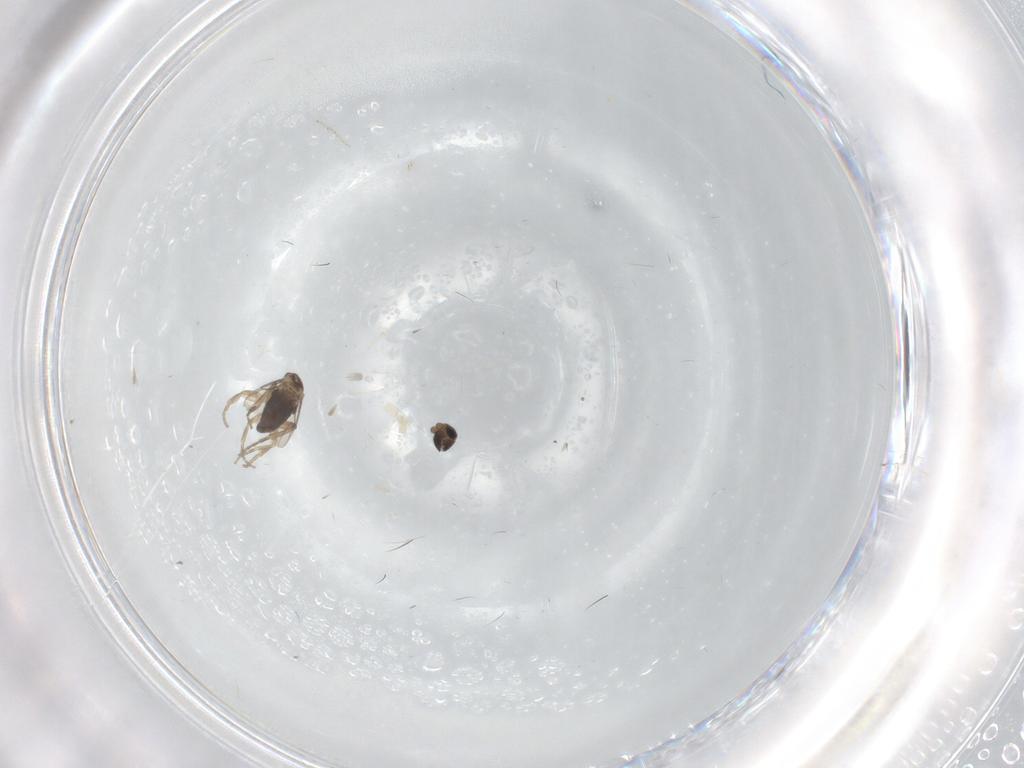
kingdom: Animalia
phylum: Arthropoda
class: Insecta
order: Diptera
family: Phoridae
